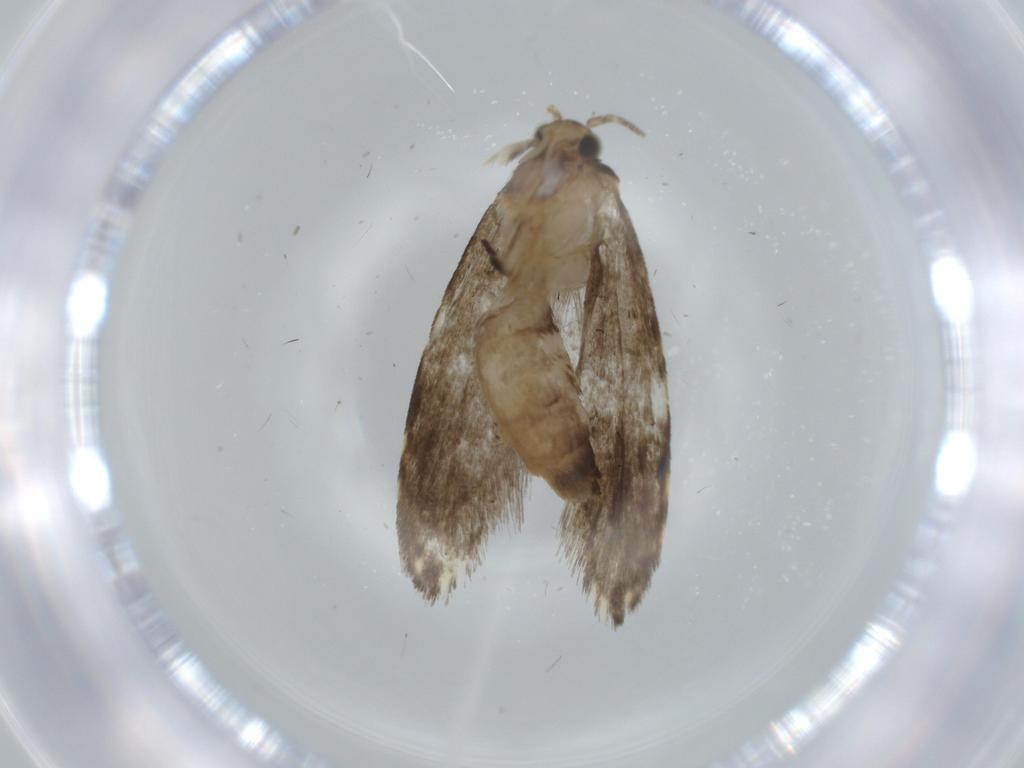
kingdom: Animalia
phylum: Arthropoda
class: Insecta
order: Lepidoptera
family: Tineidae
